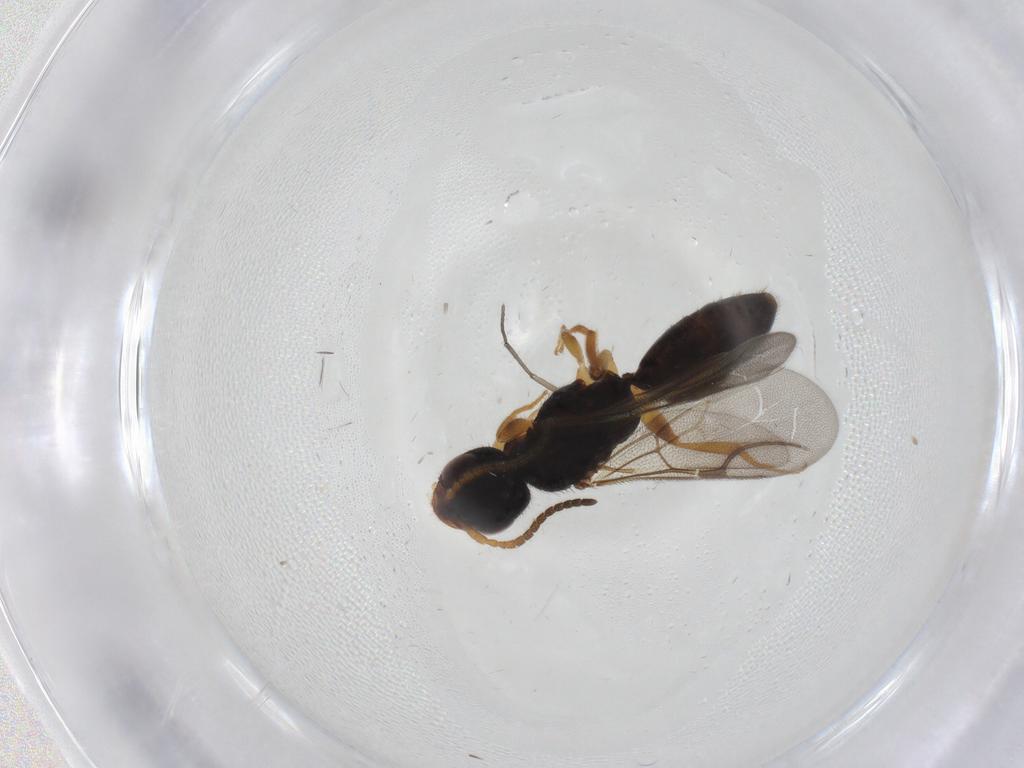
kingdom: Animalia
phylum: Arthropoda
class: Insecta
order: Hymenoptera
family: Bethylidae
